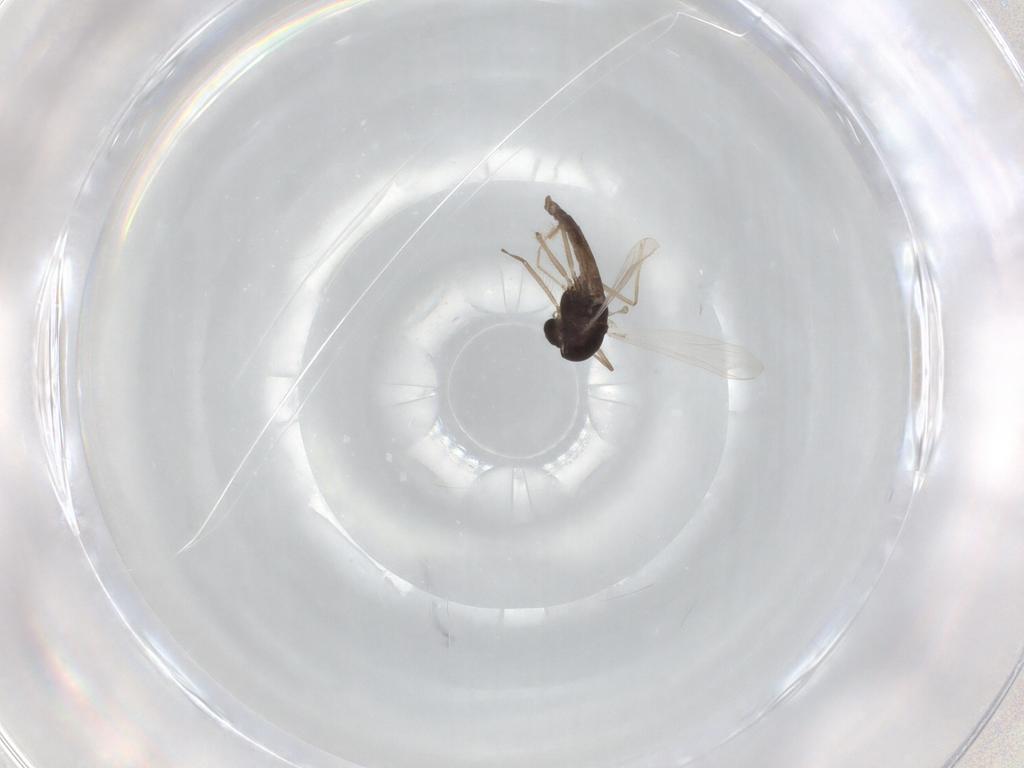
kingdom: Animalia
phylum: Arthropoda
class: Insecta
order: Diptera
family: Chironomidae
